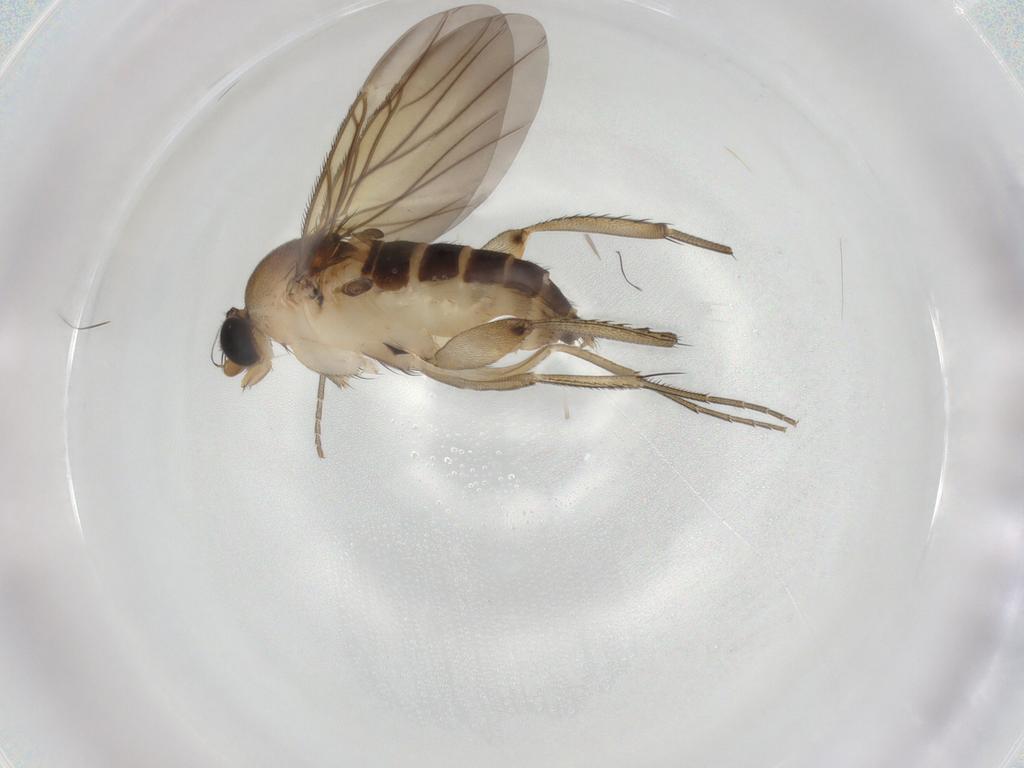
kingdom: Animalia
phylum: Arthropoda
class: Insecta
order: Diptera
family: Phoridae
